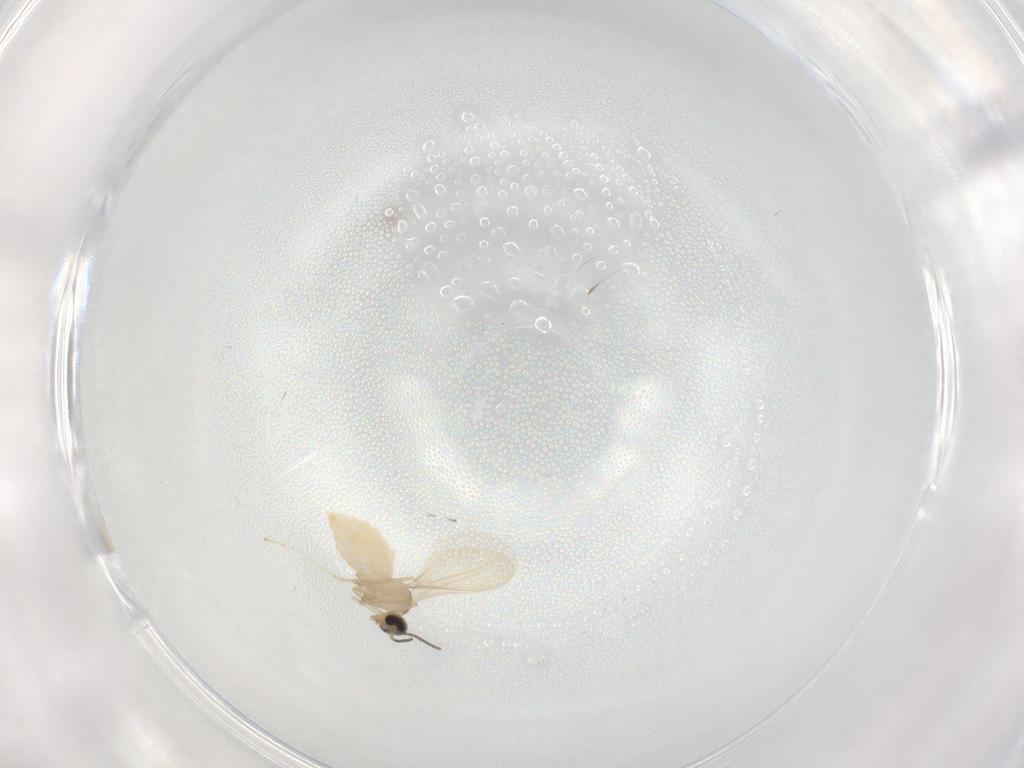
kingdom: Animalia
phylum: Arthropoda
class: Insecta
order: Diptera
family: Cecidomyiidae
